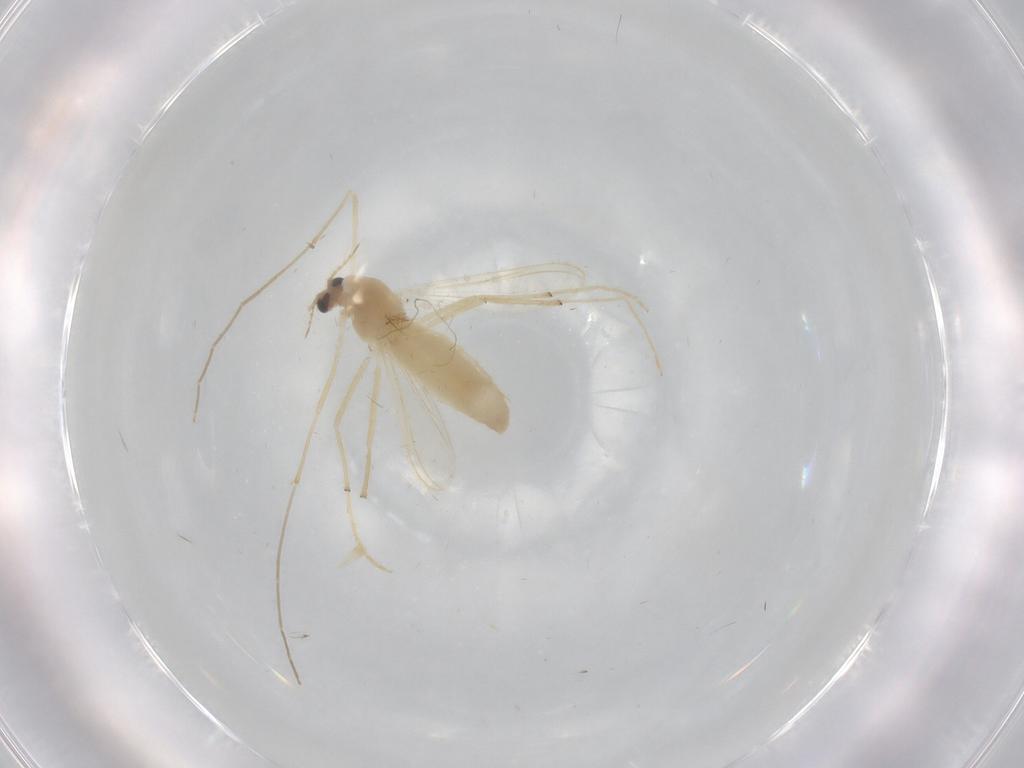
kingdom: Animalia
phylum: Arthropoda
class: Insecta
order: Diptera
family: Chironomidae
